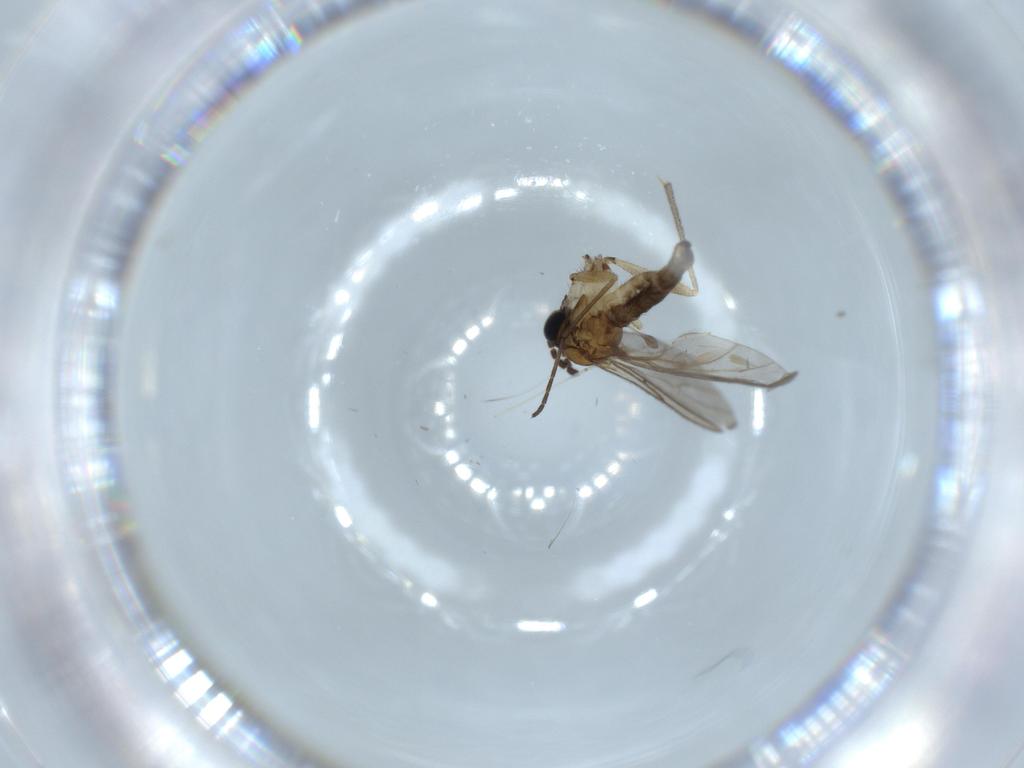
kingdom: Animalia
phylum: Arthropoda
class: Insecta
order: Diptera
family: Sciaridae
